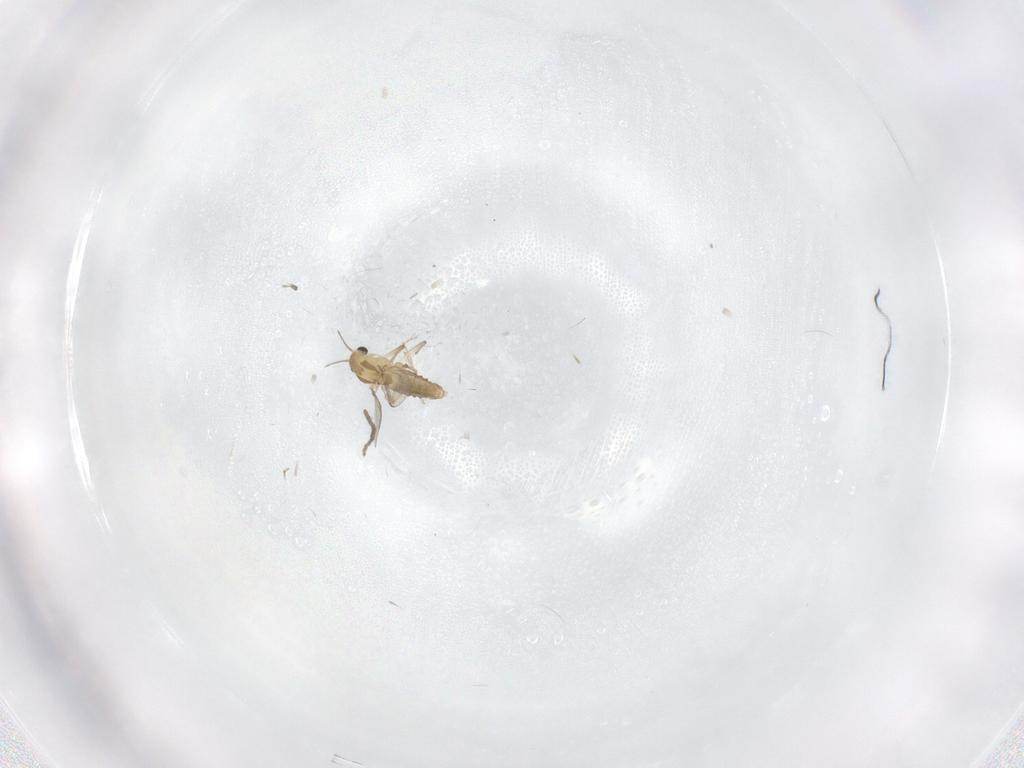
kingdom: Animalia
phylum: Arthropoda
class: Insecta
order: Diptera
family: Chironomidae
